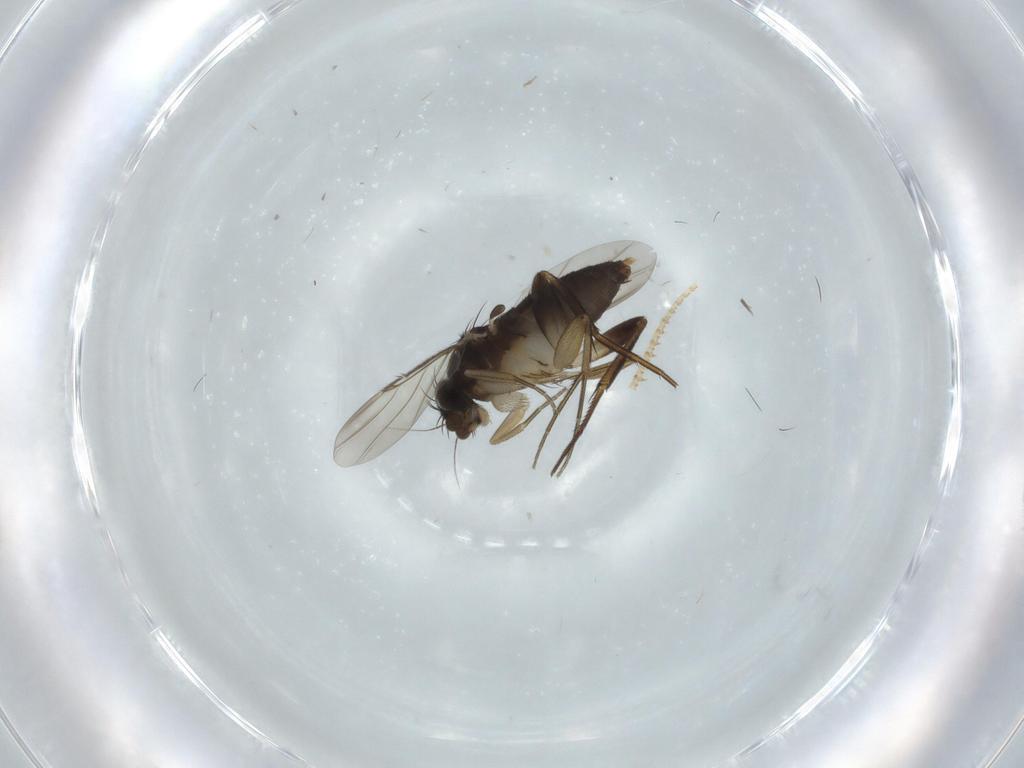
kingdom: Animalia
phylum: Arthropoda
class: Insecta
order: Diptera
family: Phoridae
